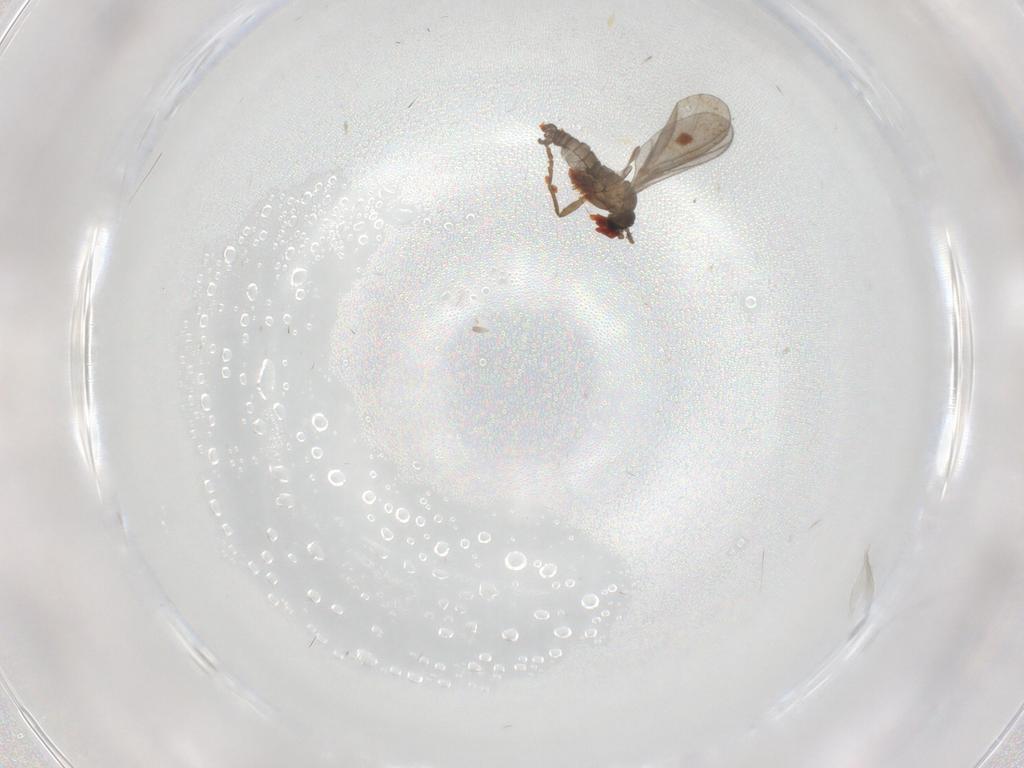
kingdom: Animalia
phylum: Arthropoda
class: Insecta
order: Diptera
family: Sciaridae
